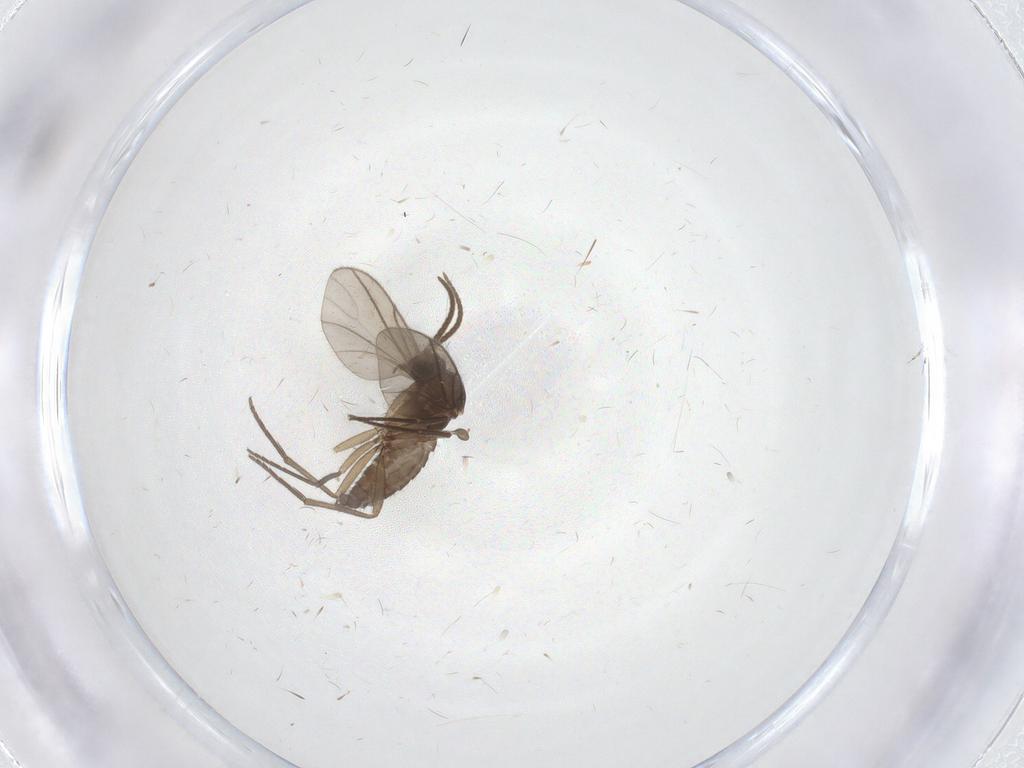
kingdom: Animalia
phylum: Arthropoda
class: Insecta
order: Diptera
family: Sciaridae
